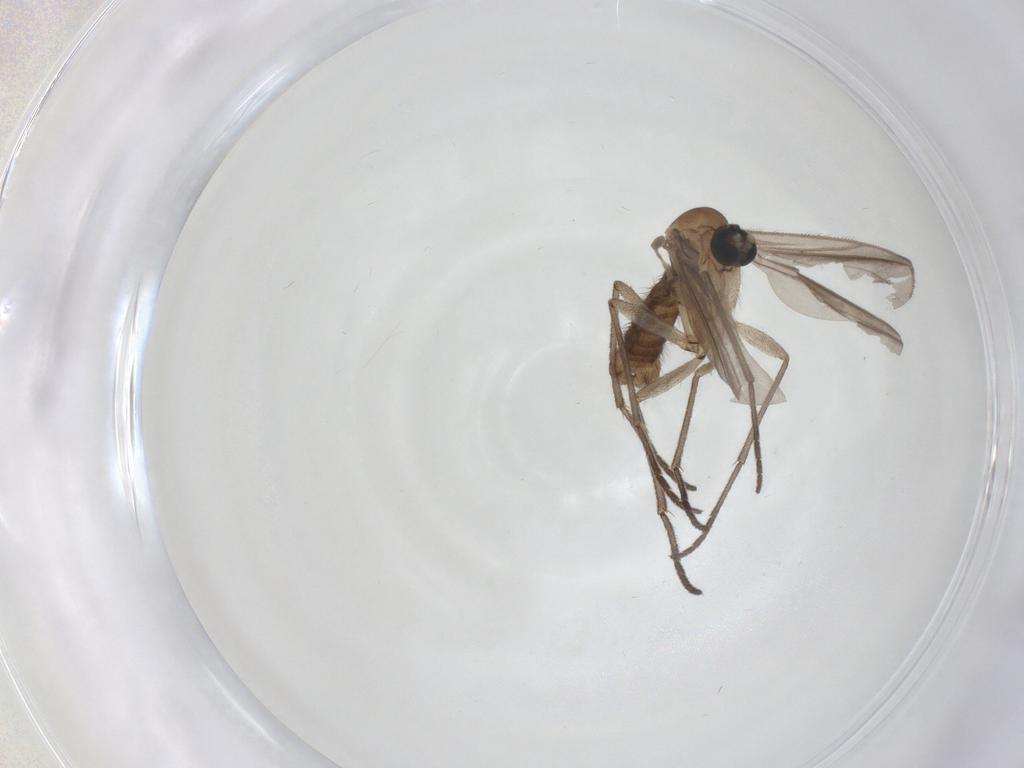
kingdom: Animalia
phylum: Arthropoda
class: Insecta
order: Diptera
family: Sciaridae
